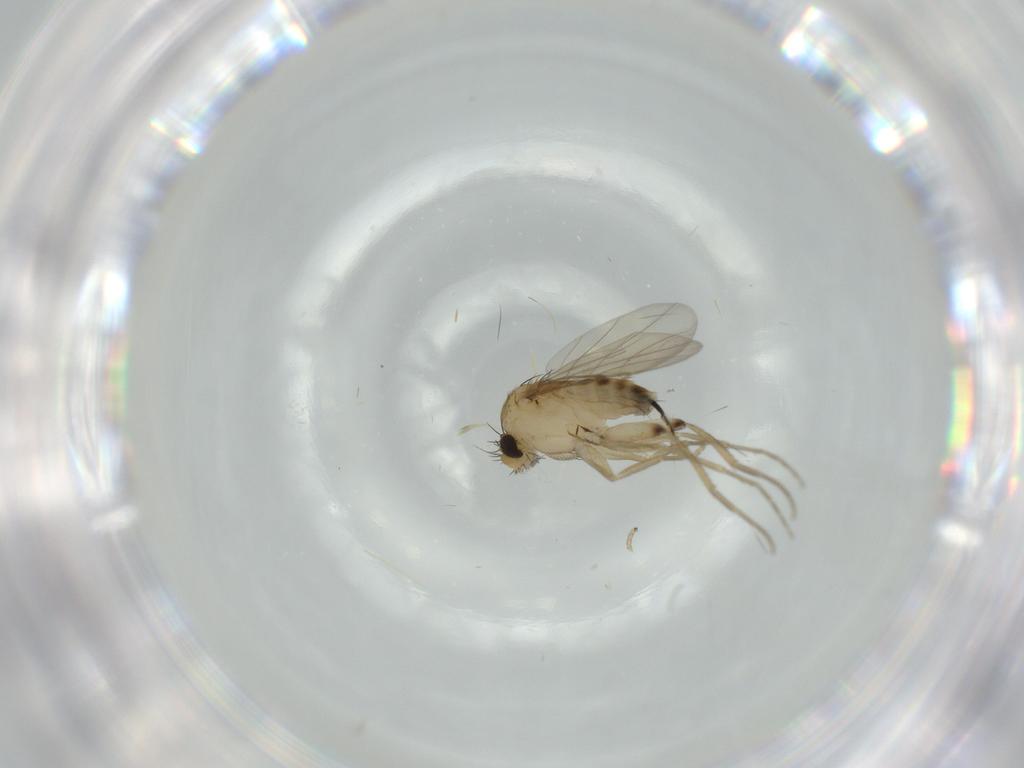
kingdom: Animalia
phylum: Arthropoda
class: Insecta
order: Diptera
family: Phoridae
